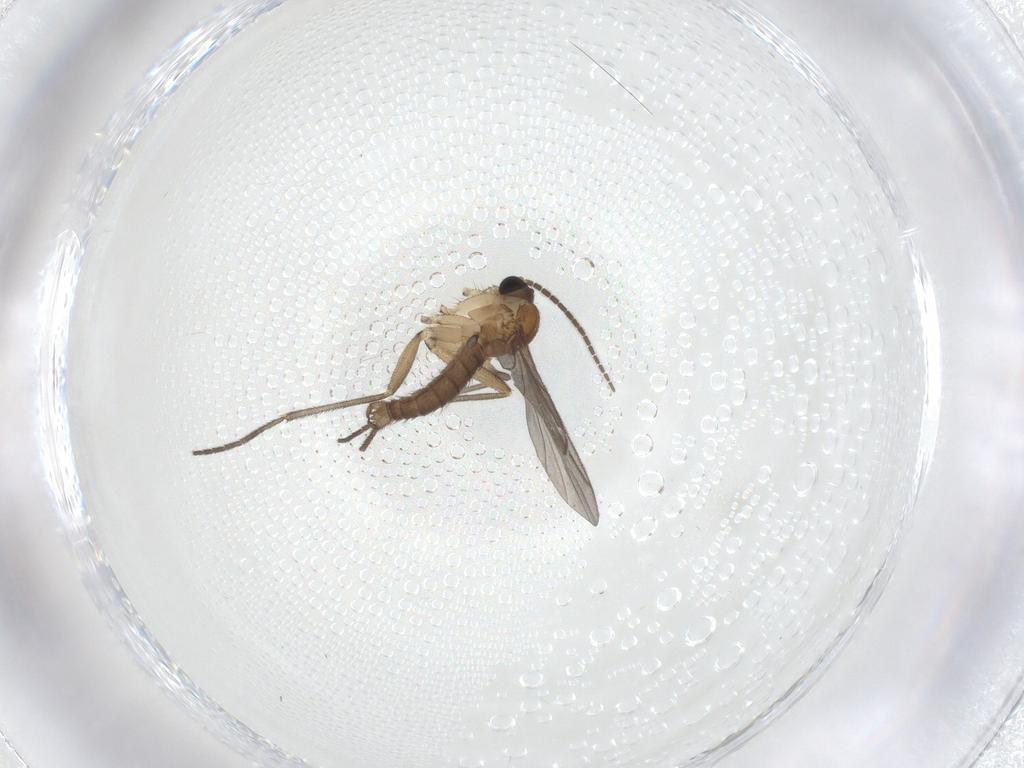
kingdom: Animalia
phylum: Arthropoda
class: Insecta
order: Diptera
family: Sciaridae
